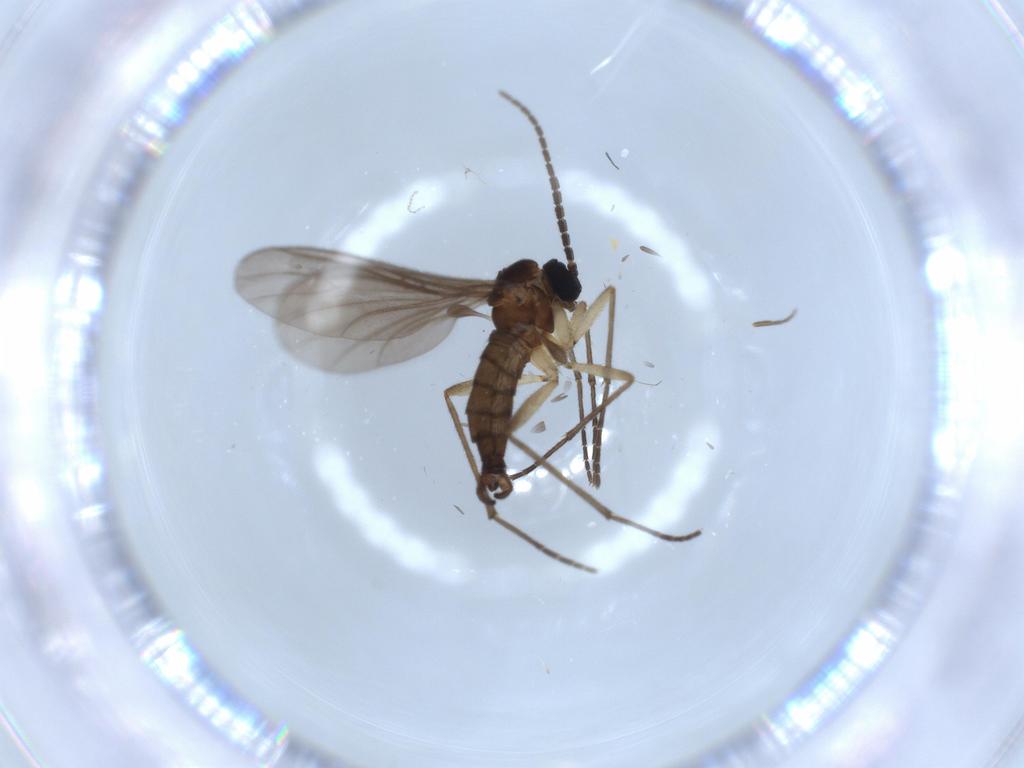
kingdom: Animalia
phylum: Arthropoda
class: Insecta
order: Diptera
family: Sciaridae
